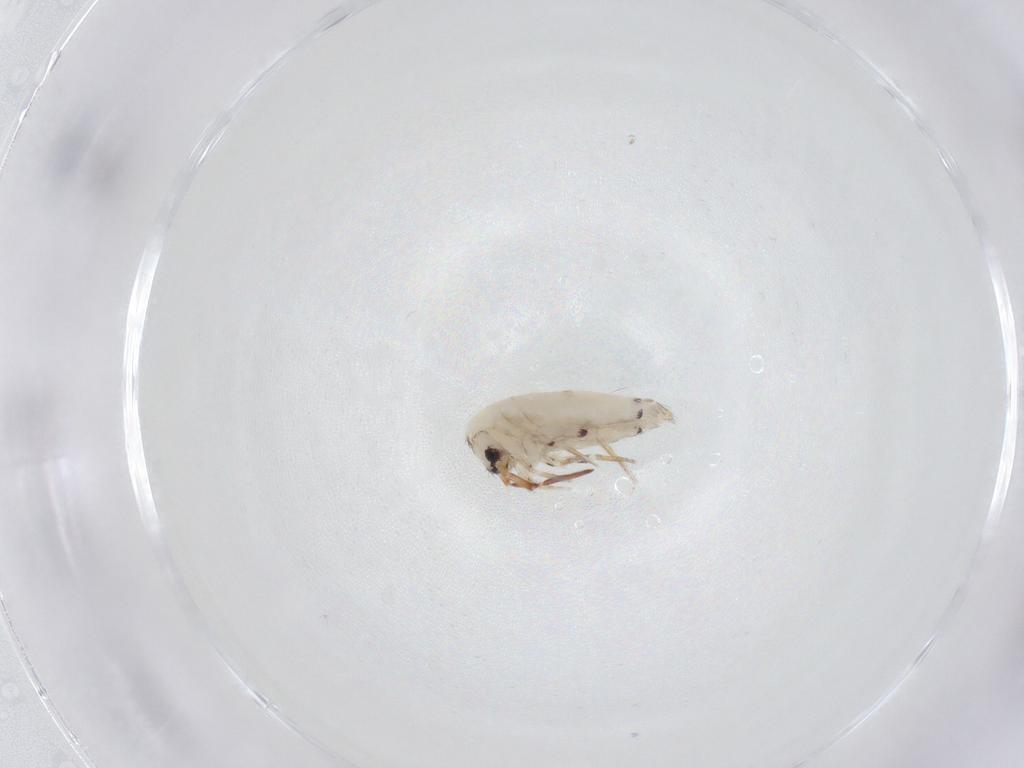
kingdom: Animalia
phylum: Arthropoda
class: Collembola
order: Entomobryomorpha
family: Entomobryidae
